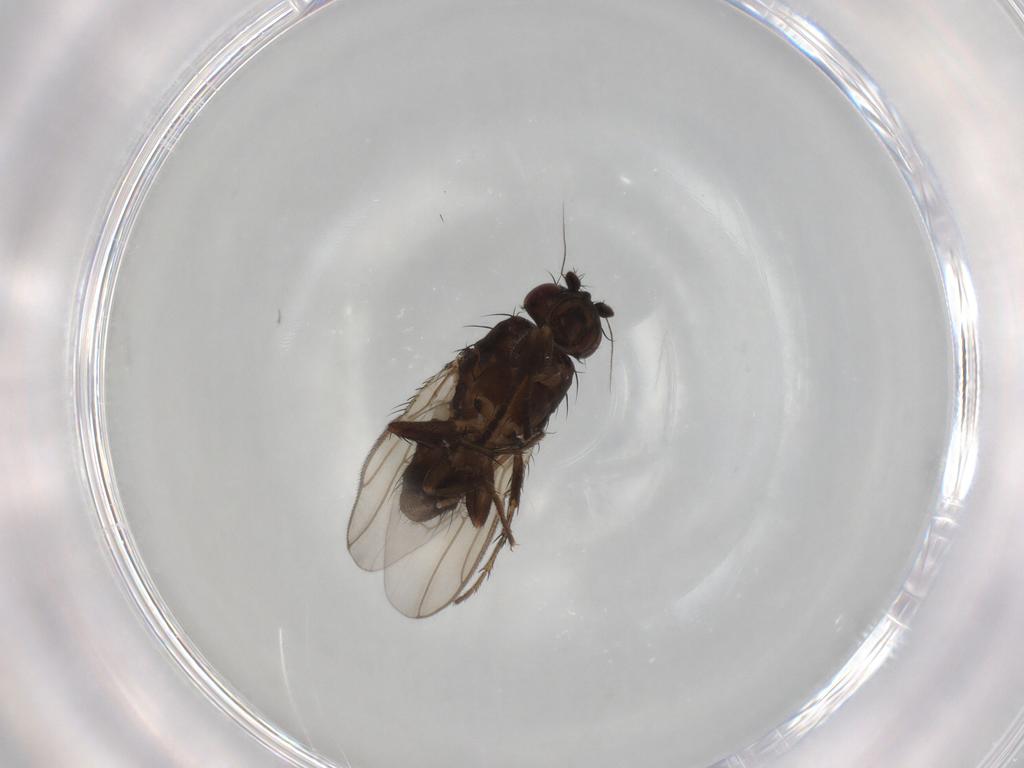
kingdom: Animalia
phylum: Arthropoda
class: Insecta
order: Diptera
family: Sphaeroceridae
